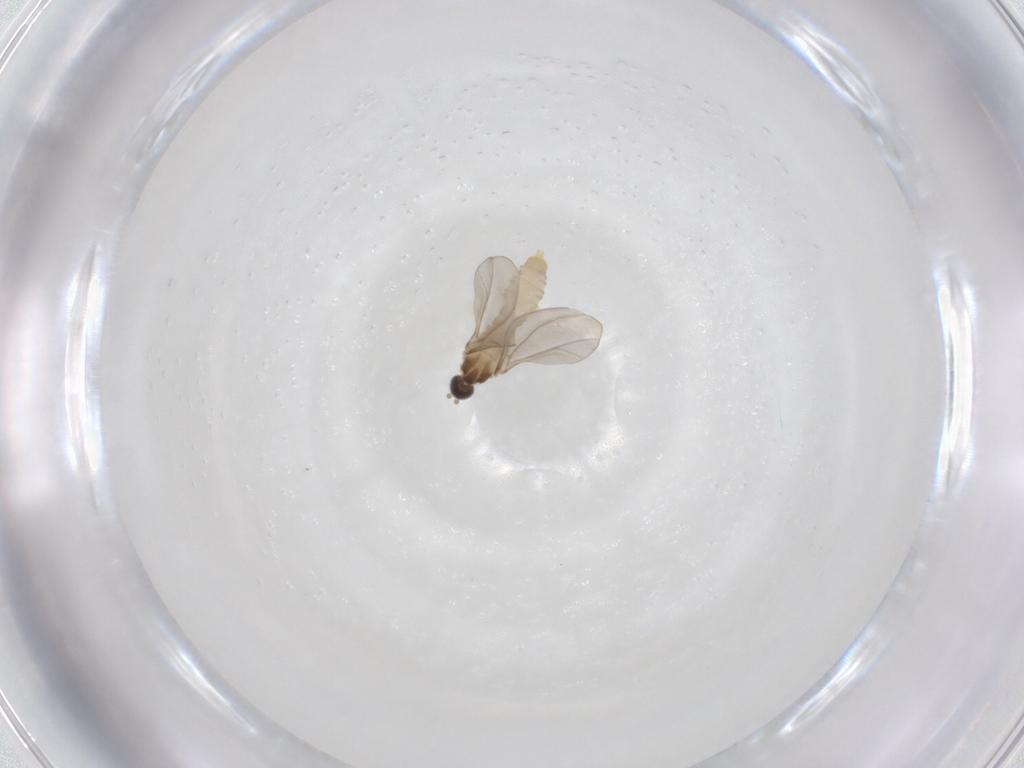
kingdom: Animalia
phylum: Arthropoda
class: Insecta
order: Diptera
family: Cecidomyiidae
